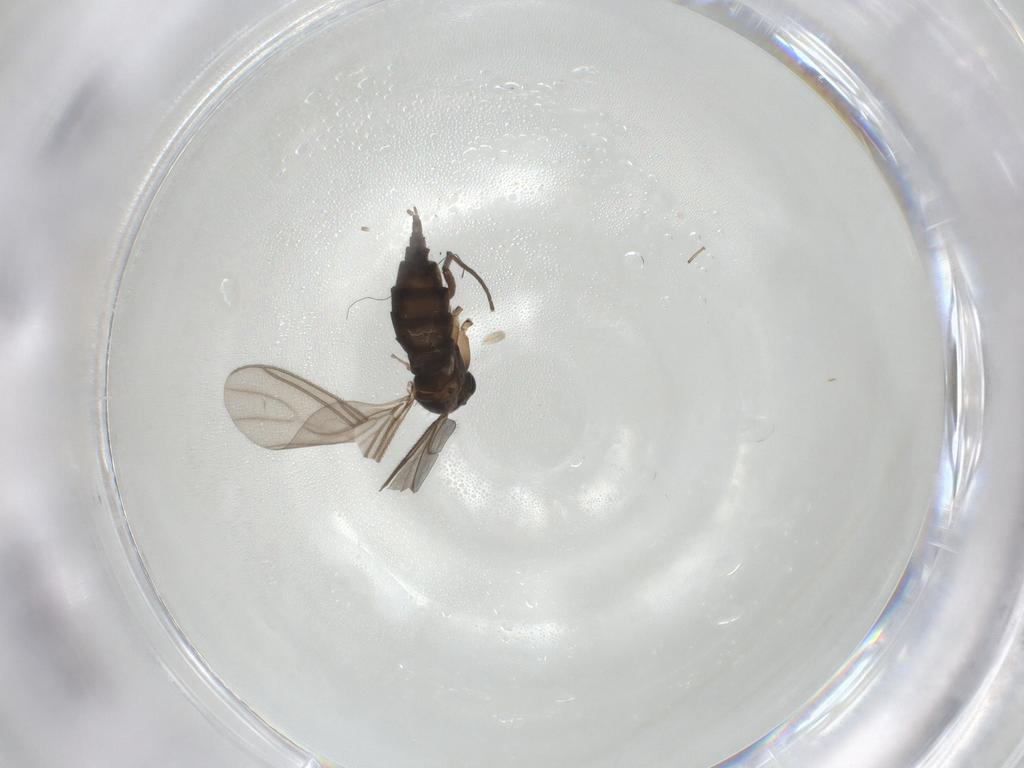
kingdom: Animalia
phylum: Arthropoda
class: Insecta
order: Diptera
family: Sciaridae
